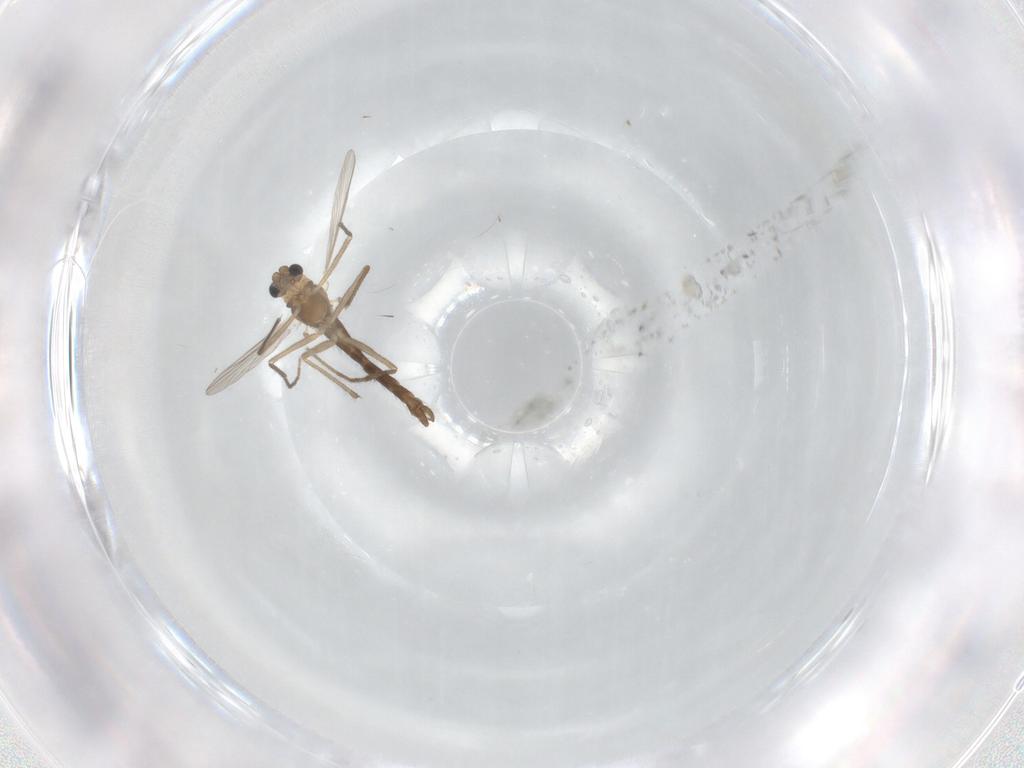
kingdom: Animalia
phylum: Arthropoda
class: Insecta
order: Diptera
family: Chironomidae
